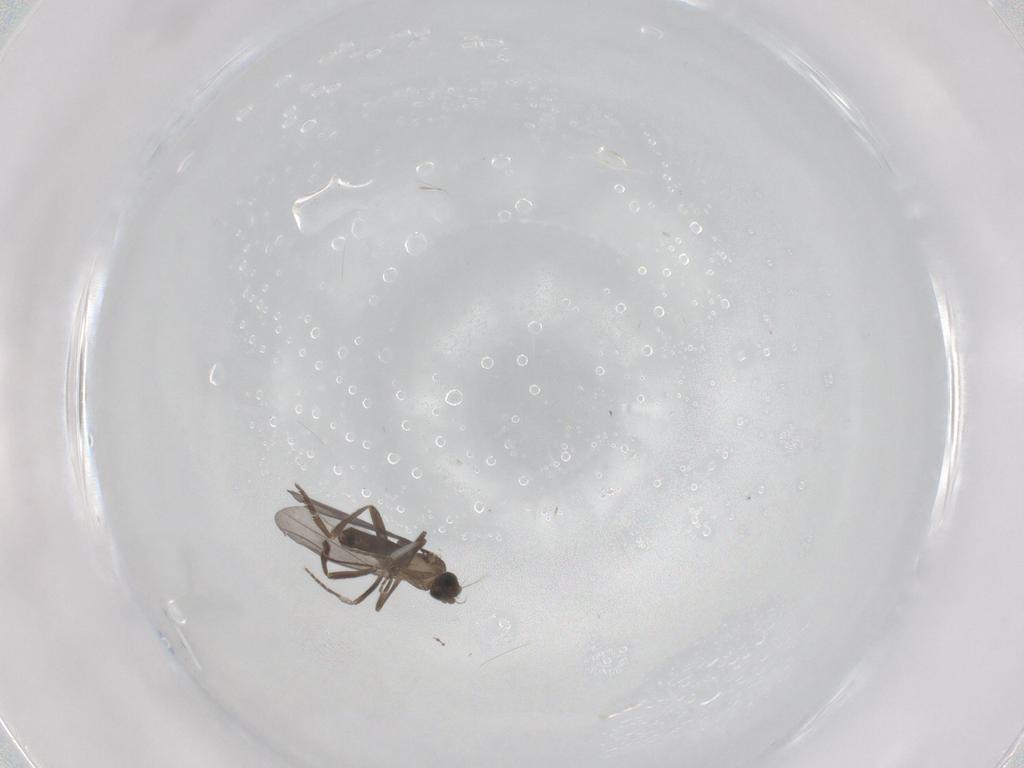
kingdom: Animalia
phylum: Arthropoda
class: Insecta
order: Diptera
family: Phoridae
